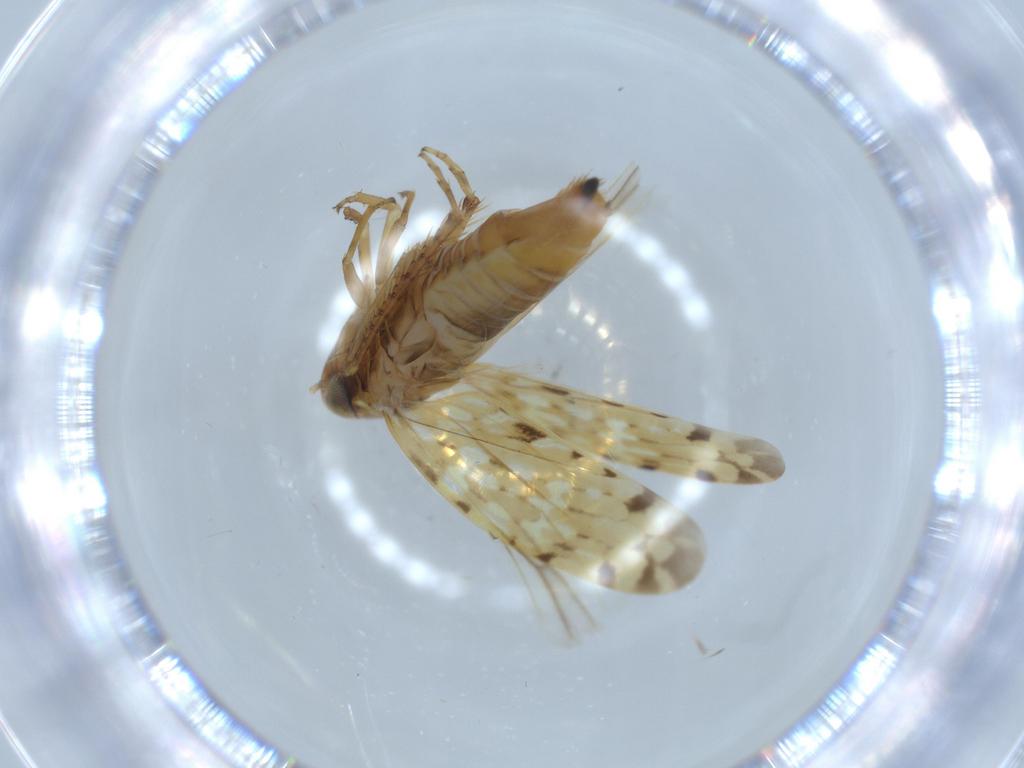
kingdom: Animalia
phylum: Arthropoda
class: Insecta
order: Hemiptera
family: Cicadellidae
